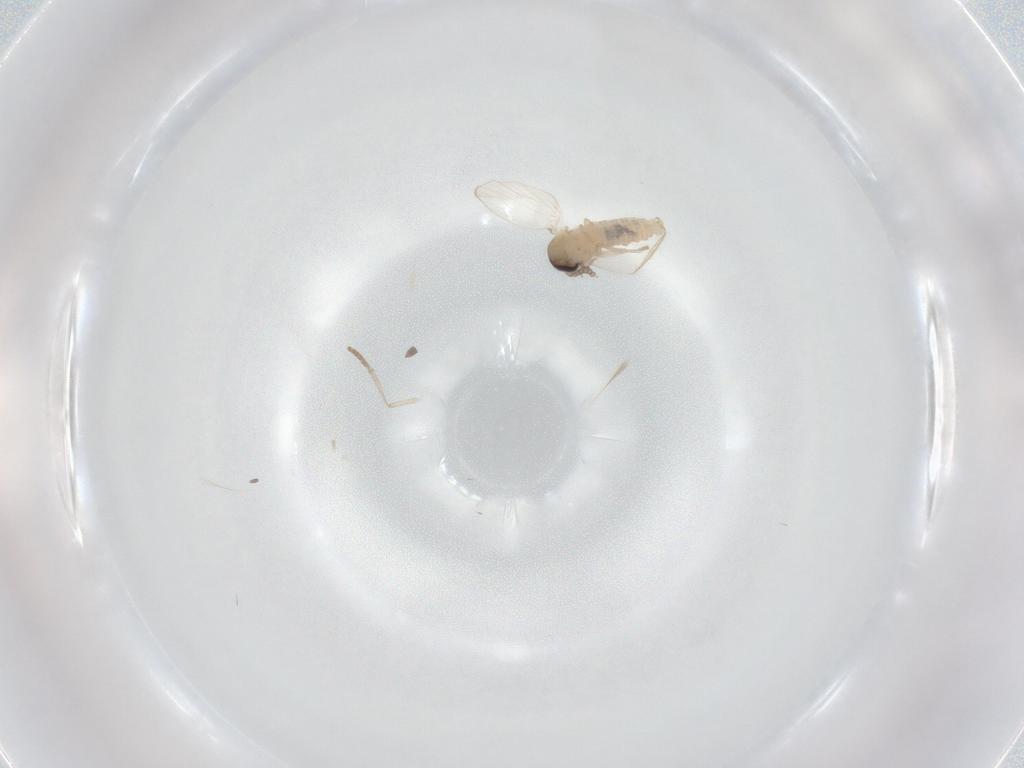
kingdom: Animalia
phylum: Arthropoda
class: Insecta
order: Diptera
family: Psychodidae
